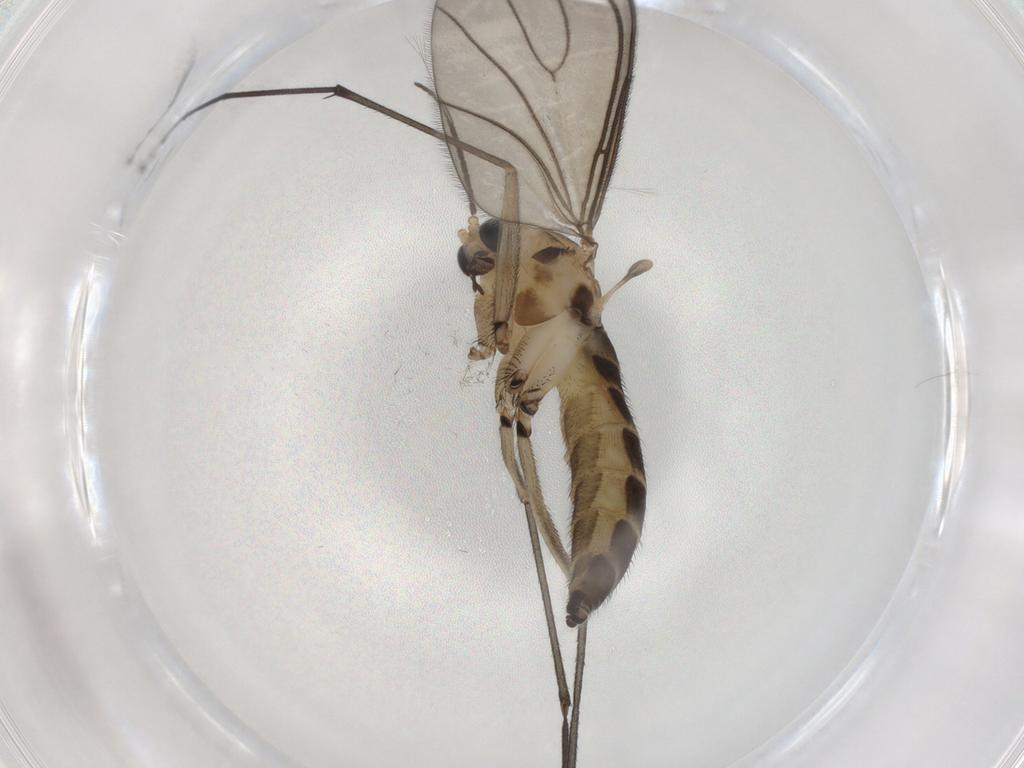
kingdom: Animalia
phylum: Arthropoda
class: Insecta
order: Diptera
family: Sciaridae
